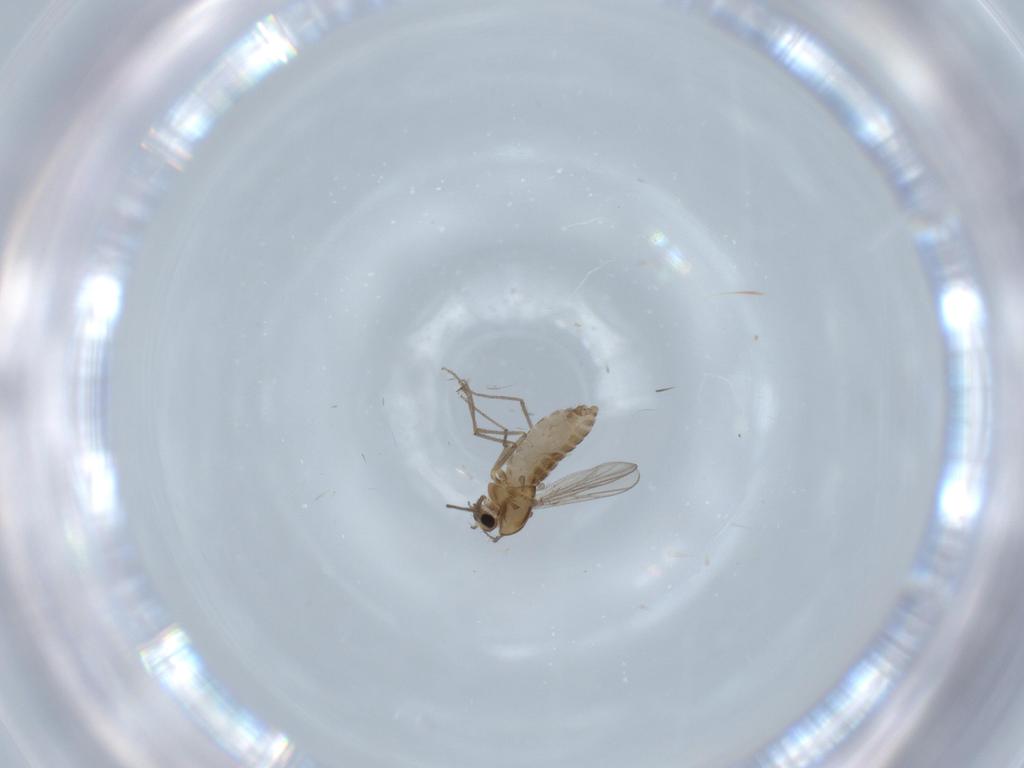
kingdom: Animalia
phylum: Arthropoda
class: Insecta
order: Diptera
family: Chironomidae
